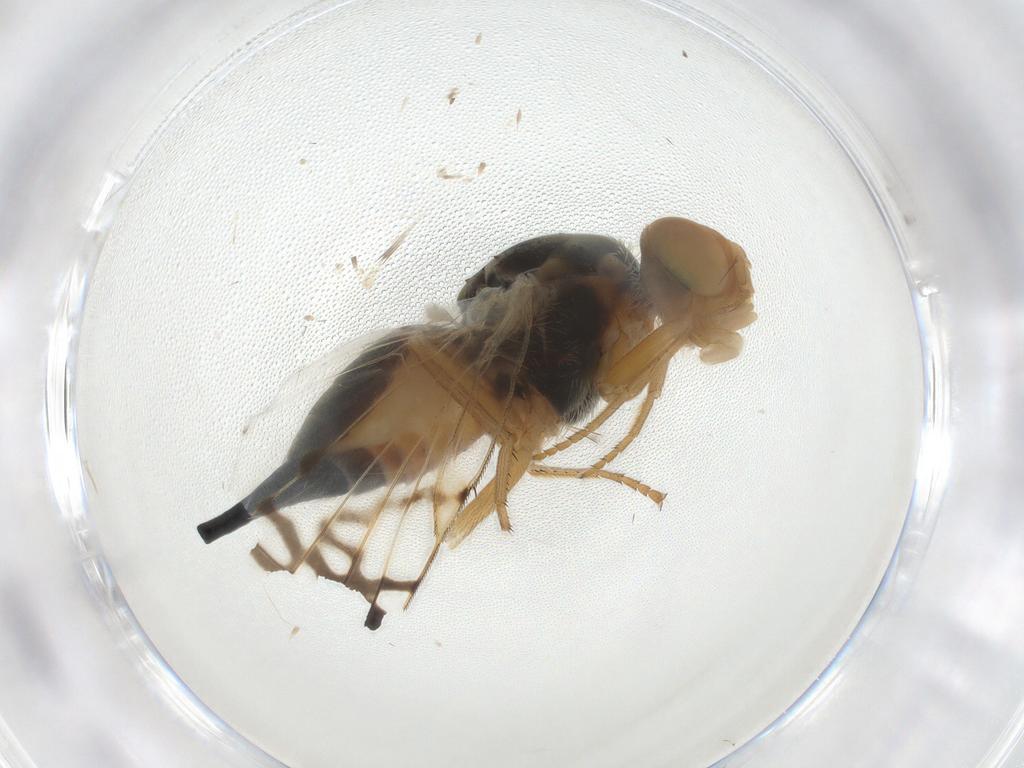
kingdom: Animalia
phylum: Arthropoda
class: Insecta
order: Diptera
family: Tephritidae
